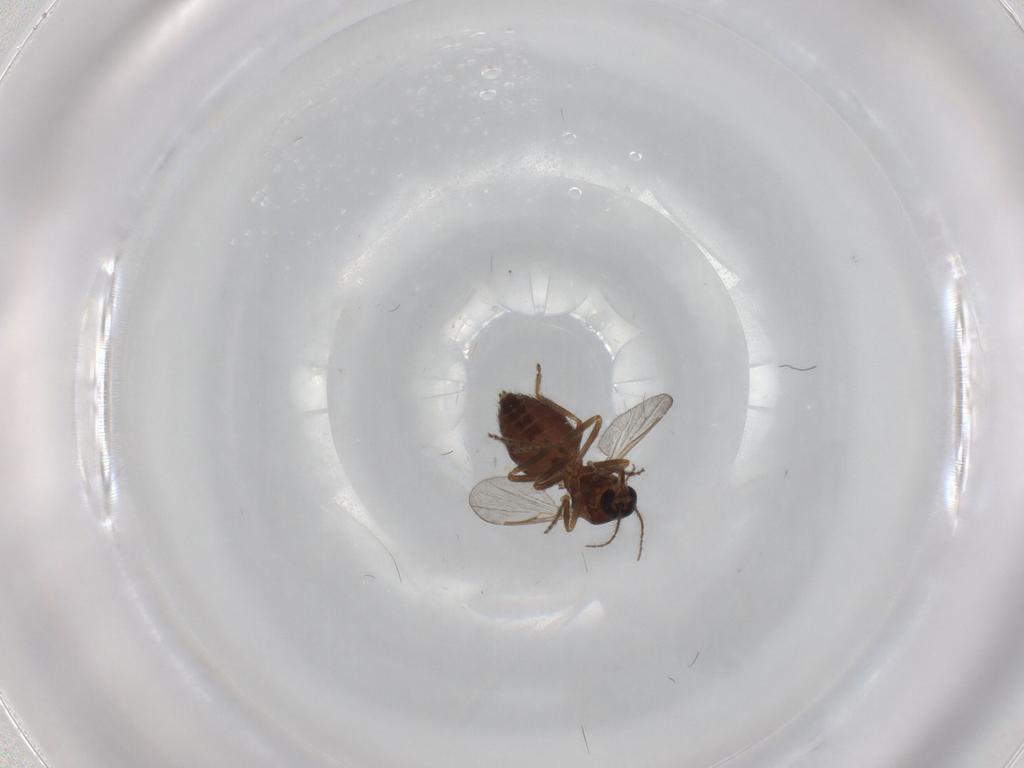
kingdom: Animalia
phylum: Arthropoda
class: Insecta
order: Diptera
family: Ceratopogonidae
